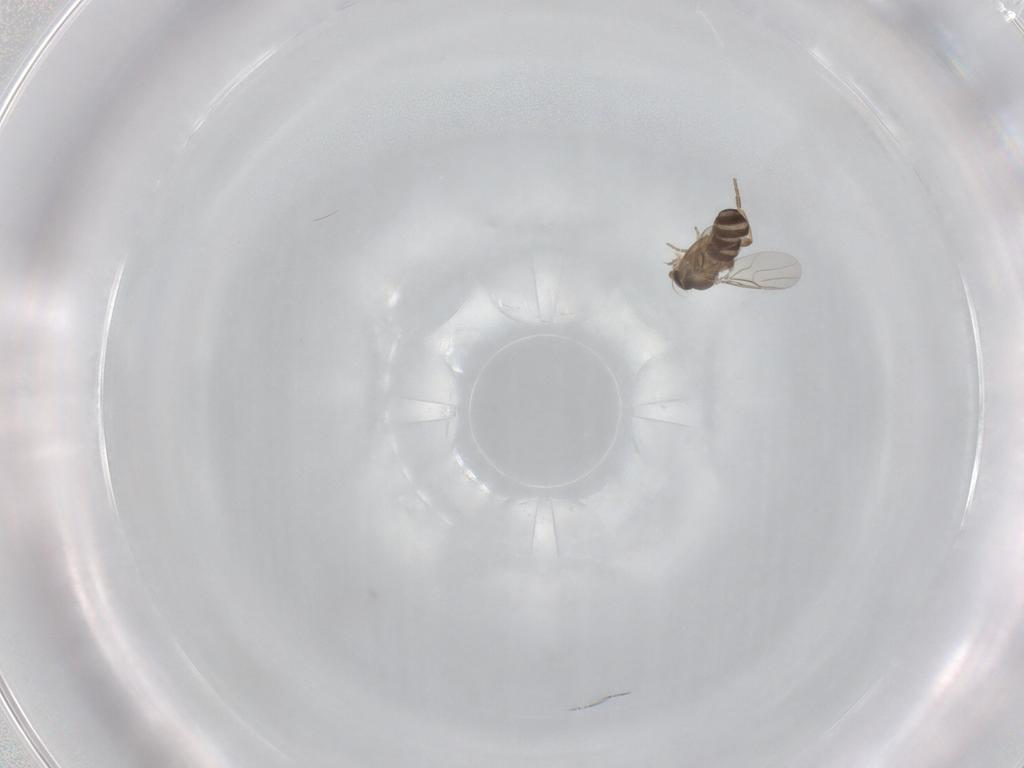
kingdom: Animalia
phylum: Arthropoda
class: Insecta
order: Diptera
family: Phoridae
